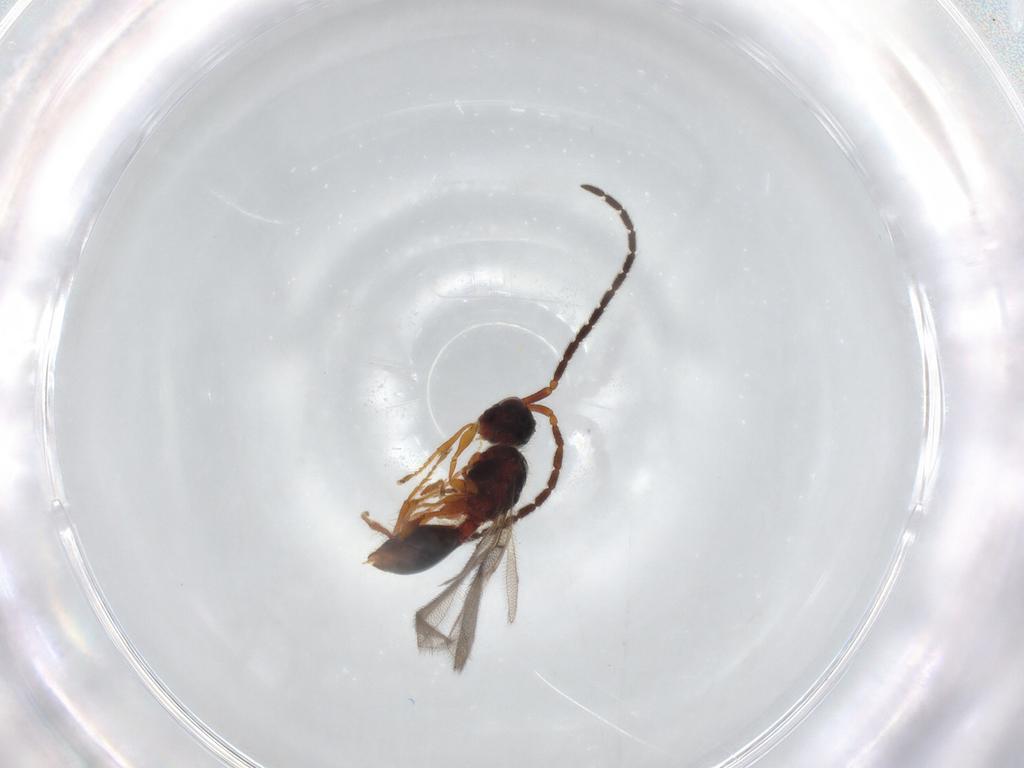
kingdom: Animalia
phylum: Arthropoda
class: Insecta
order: Hymenoptera
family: Diapriidae
